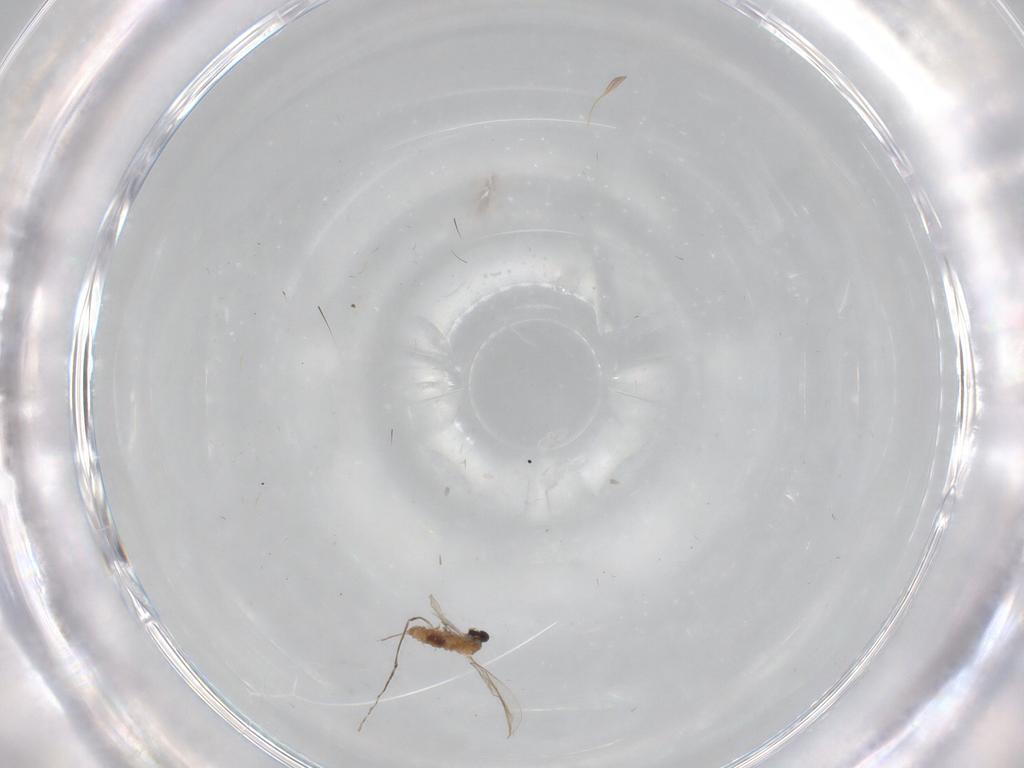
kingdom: Animalia
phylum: Arthropoda
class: Insecta
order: Diptera
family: Cecidomyiidae
